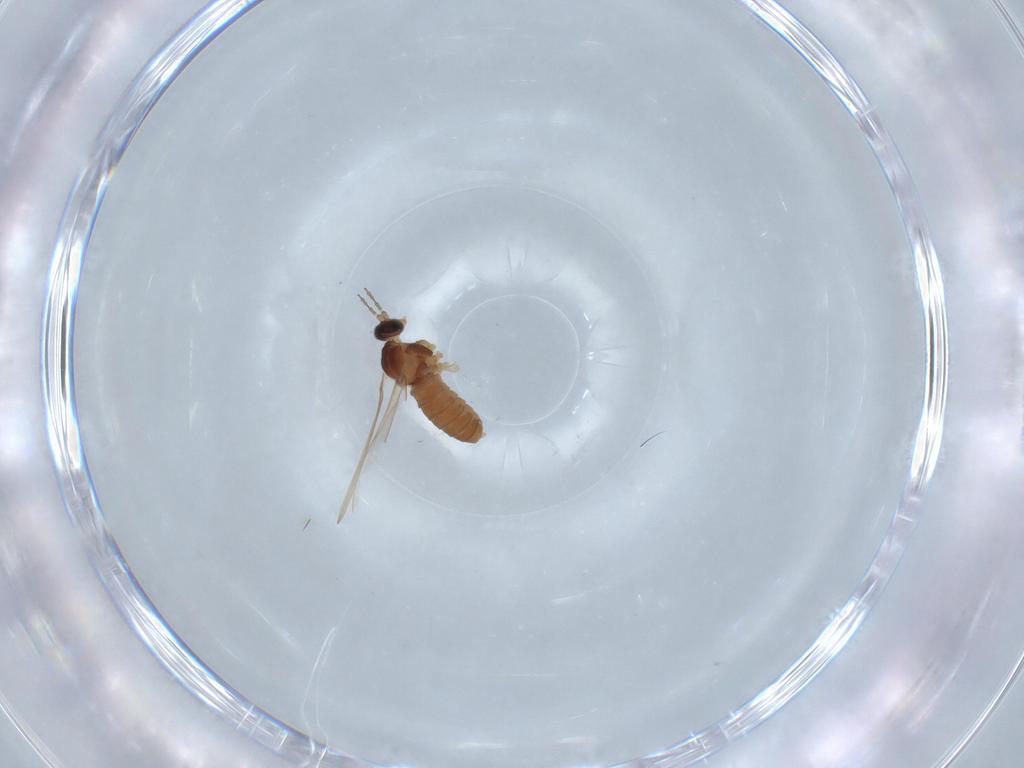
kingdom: Animalia
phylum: Arthropoda
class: Insecta
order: Diptera
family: Cecidomyiidae
